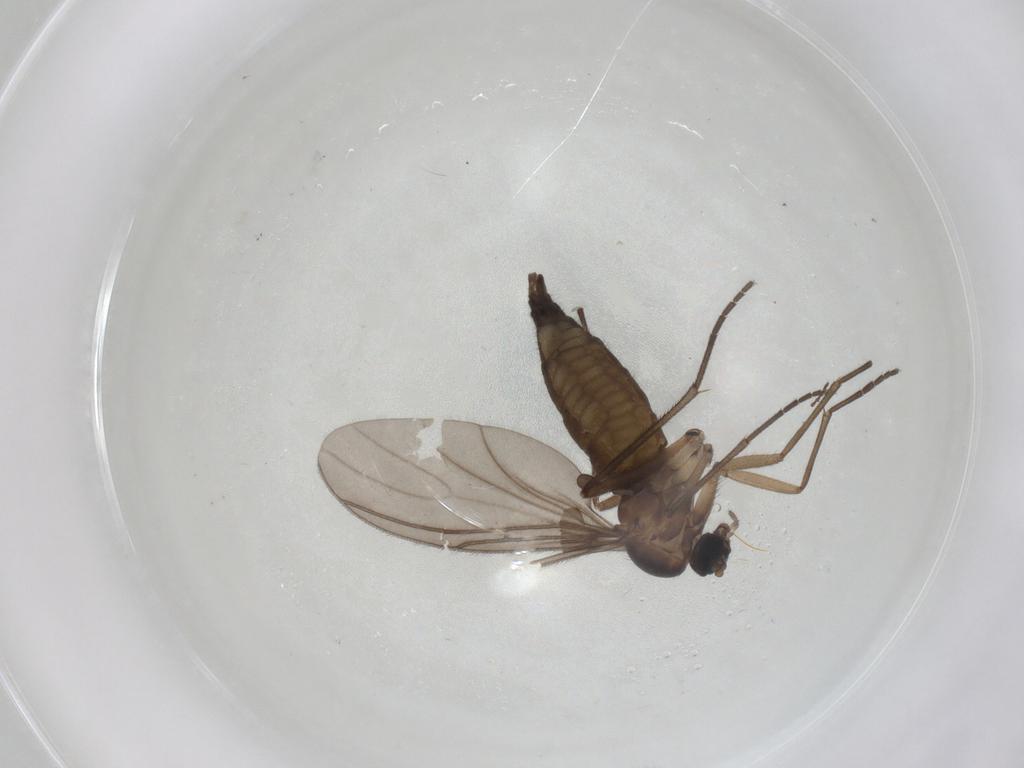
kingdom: Animalia
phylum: Arthropoda
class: Insecta
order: Diptera
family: Sciaridae
